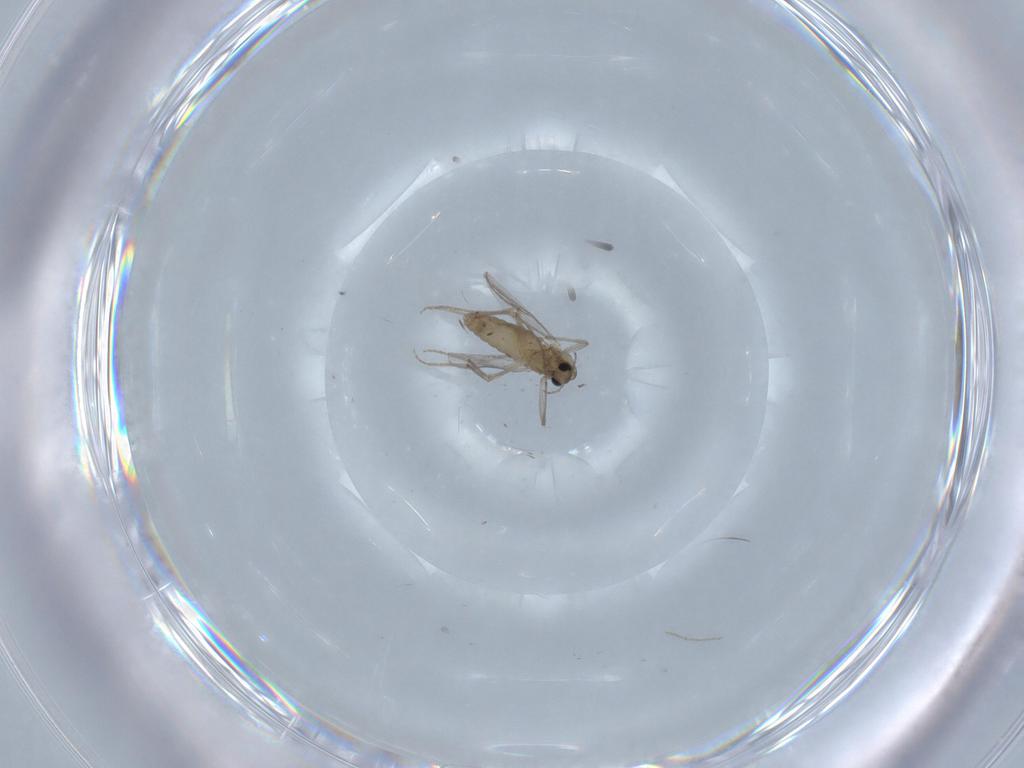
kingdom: Animalia
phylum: Arthropoda
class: Insecta
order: Diptera
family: Chironomidae
